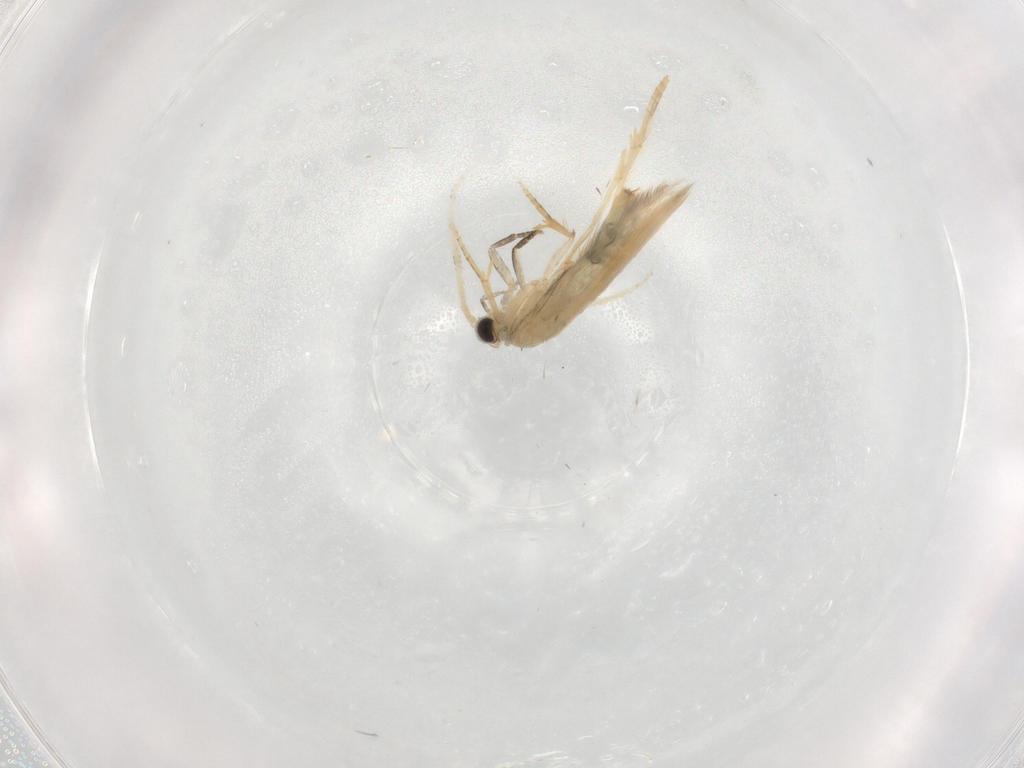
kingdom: Animalia
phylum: Arthropoda
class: Insecta
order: Trichoptera
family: Hydroptilidae
